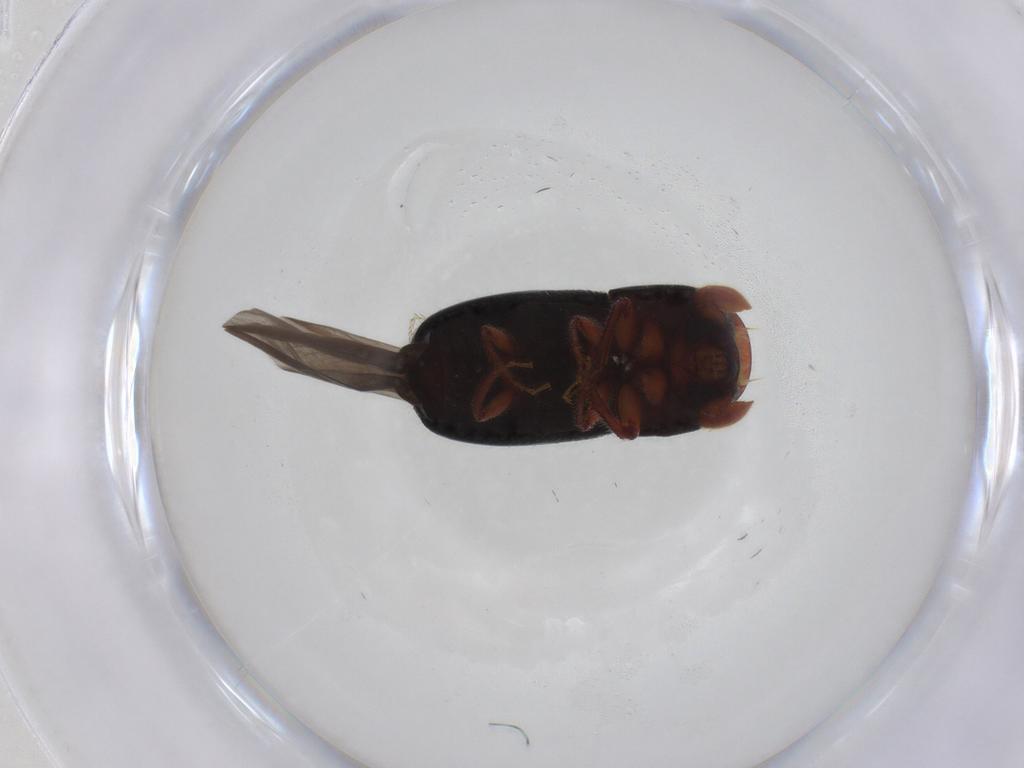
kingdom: Animalia
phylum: Arthropoda
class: Insecta
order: Coleoptera
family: Curculionidae
